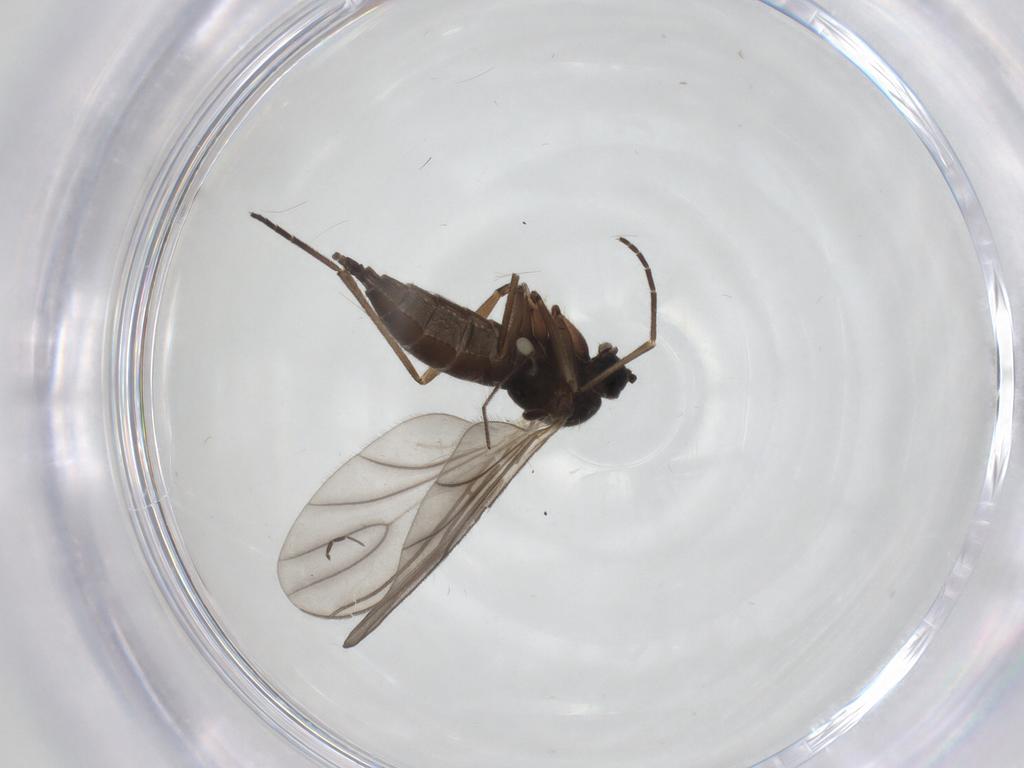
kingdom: Animalia
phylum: Arthropoda
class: Insecta
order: Diptera
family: Sciaridae
